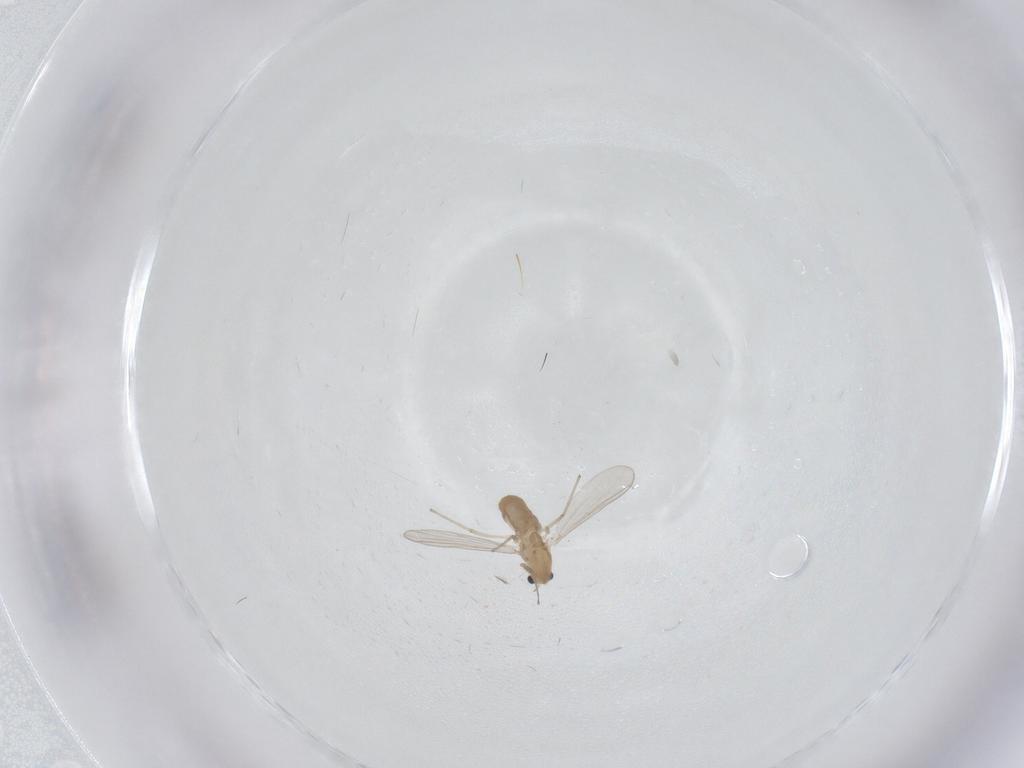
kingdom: Animalia
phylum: Arthropoda
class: Insecta
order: Diptera
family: Chironomidae
